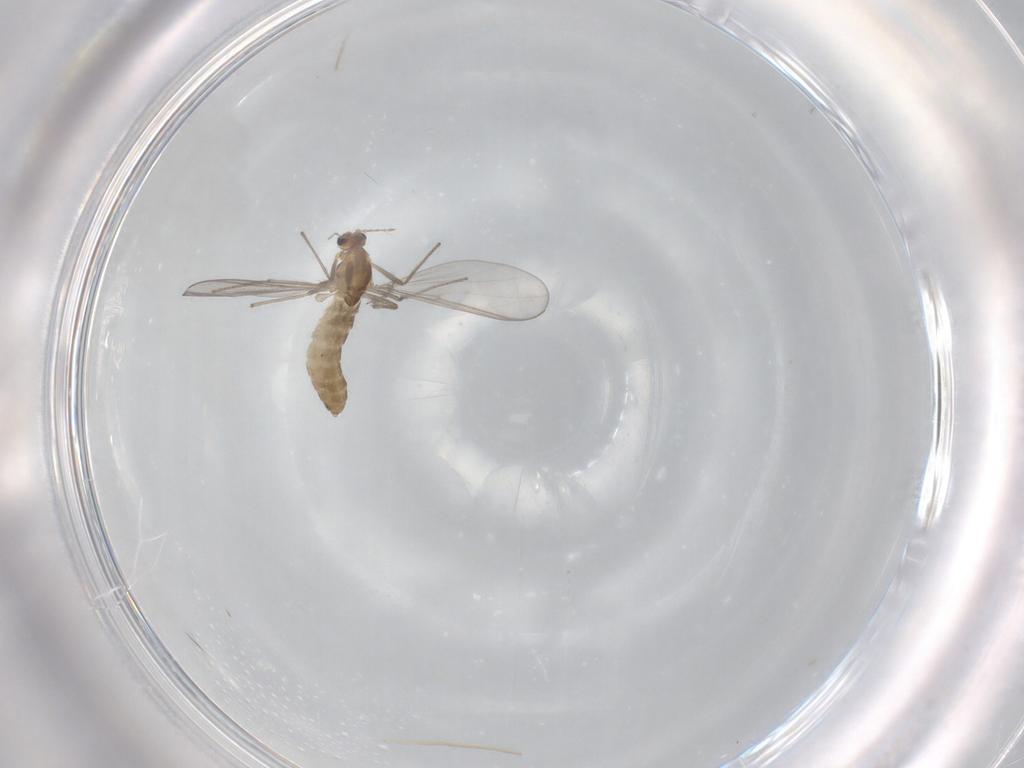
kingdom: Animalia
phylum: Arthropoda
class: Insecta
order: Diptera
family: Chironomidae
